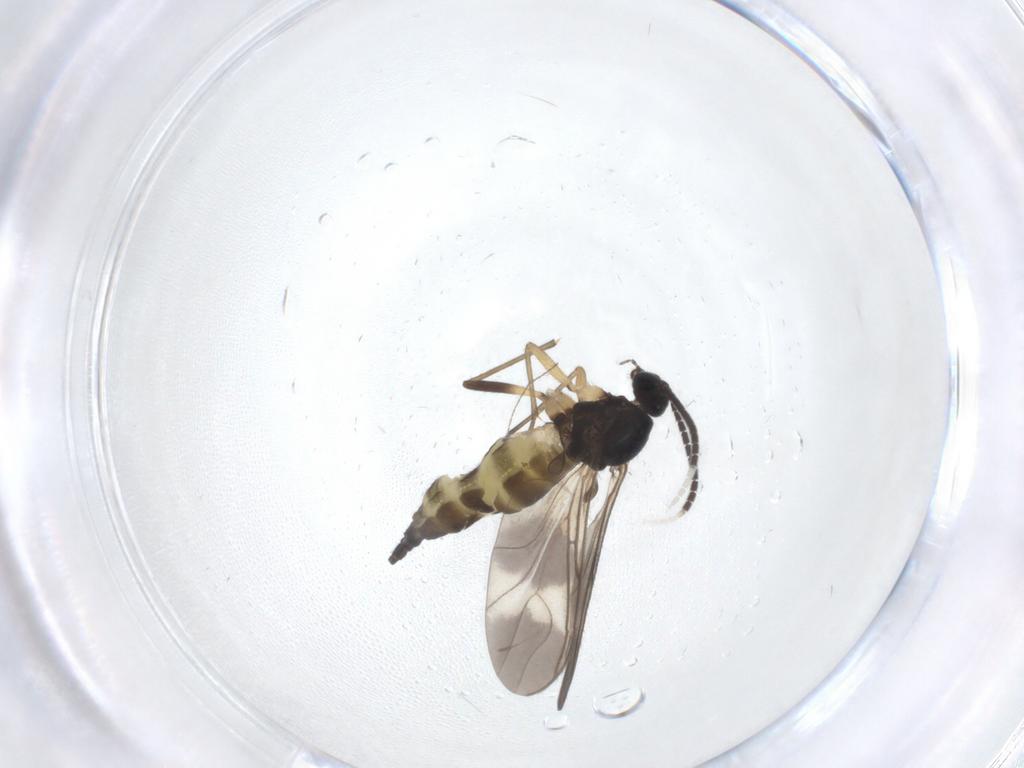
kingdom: Animalia
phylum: Arthropoda
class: Insecta
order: Diptera
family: Sciaridae
